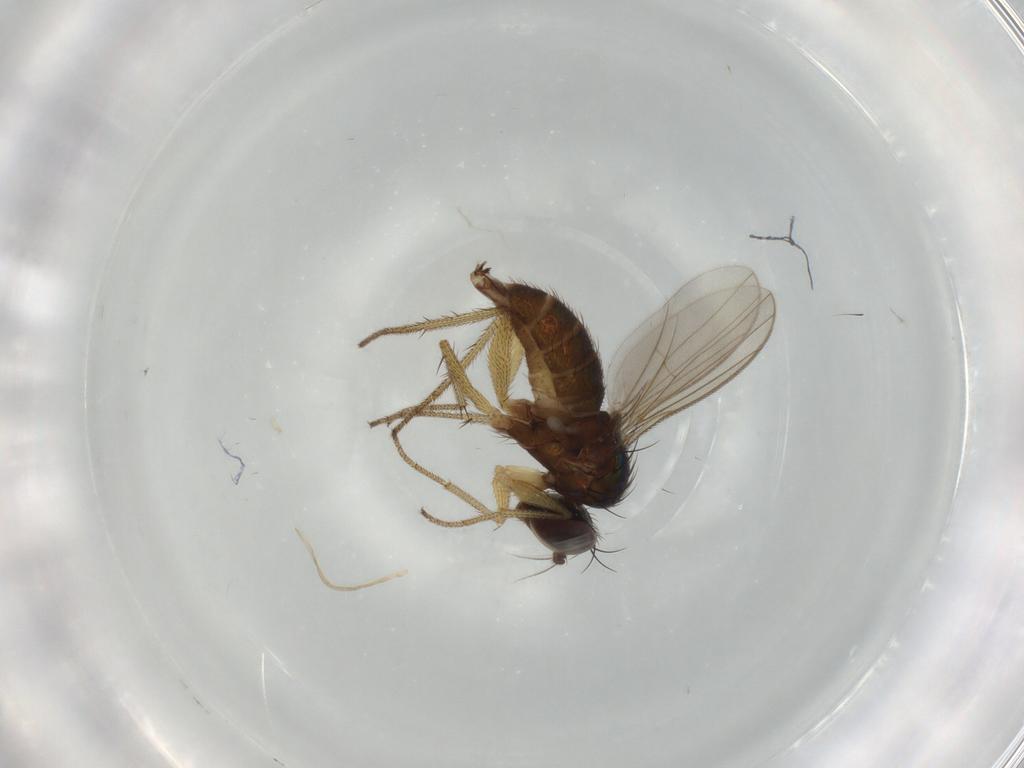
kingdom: Animalia
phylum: Arthropoda
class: Insecta
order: Diptera
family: Dolichopodidae
